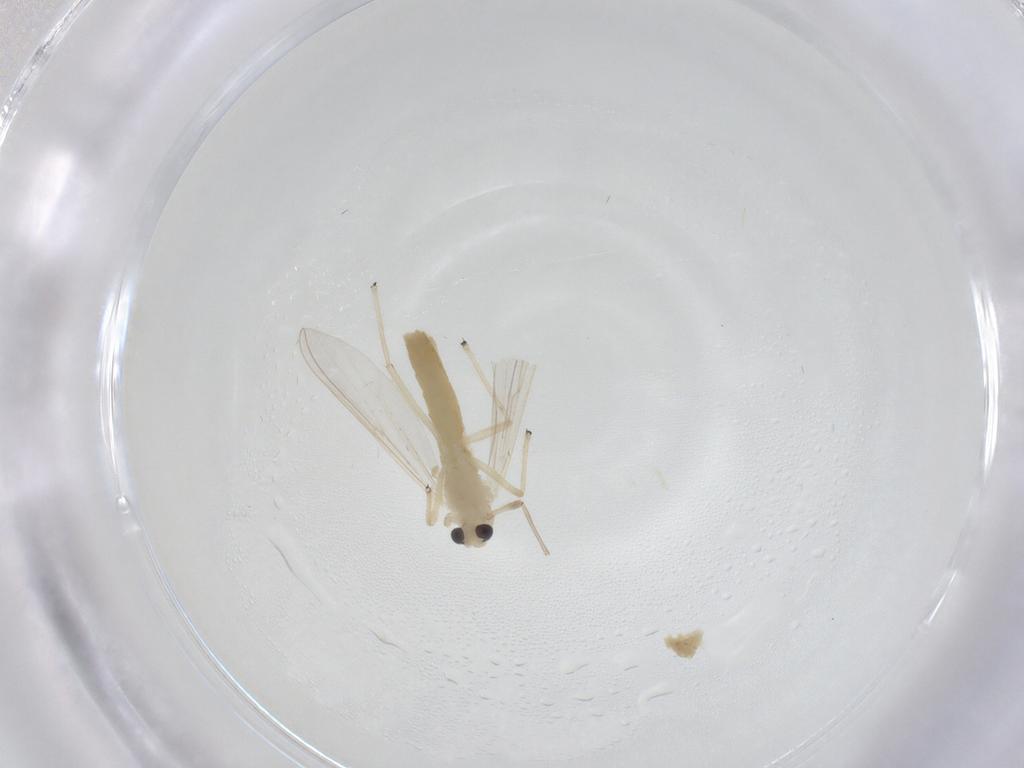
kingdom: Animalia
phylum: Arthropoda
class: Insecta
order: Diptera
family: Chironomidae
